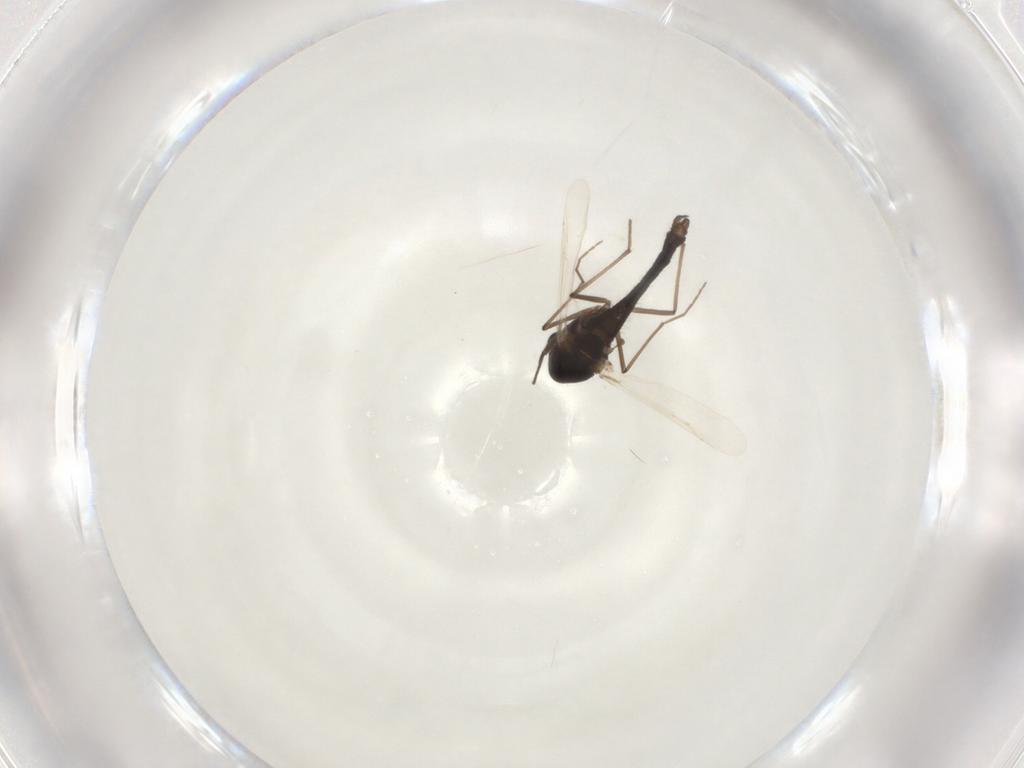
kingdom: Animalia
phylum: Arthropoda
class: Insecta
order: Diptera
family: Chironomidae
